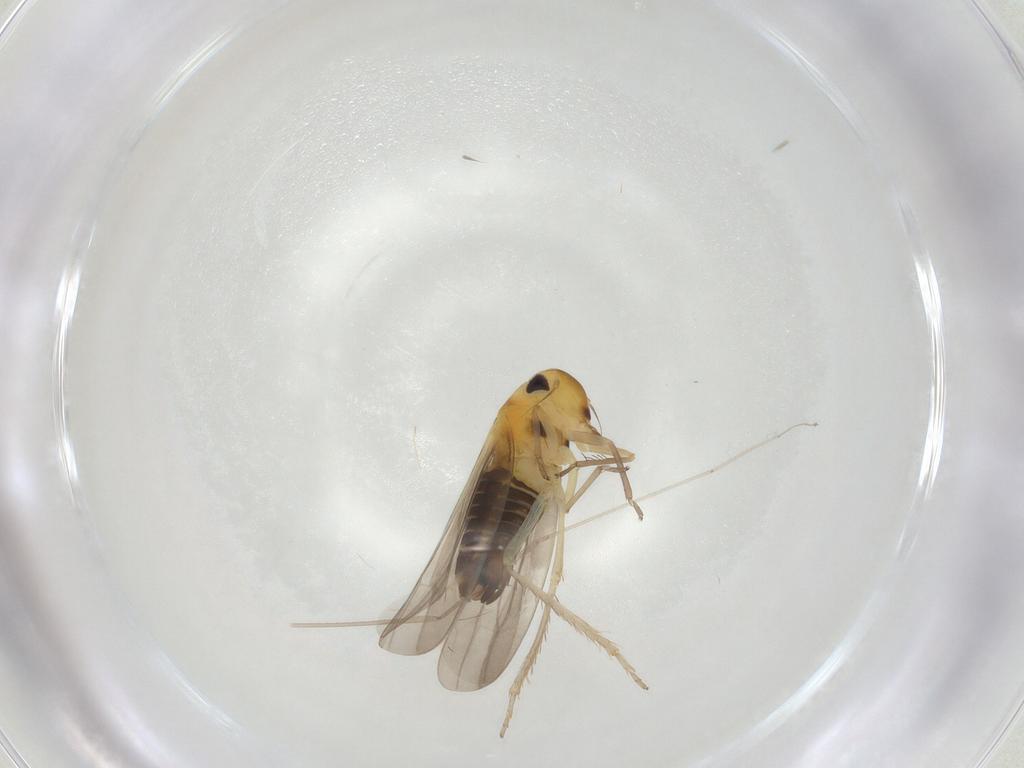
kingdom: Animalia
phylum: Arthropoda
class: Insecta
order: Hemiptera
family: Cicadellidae
